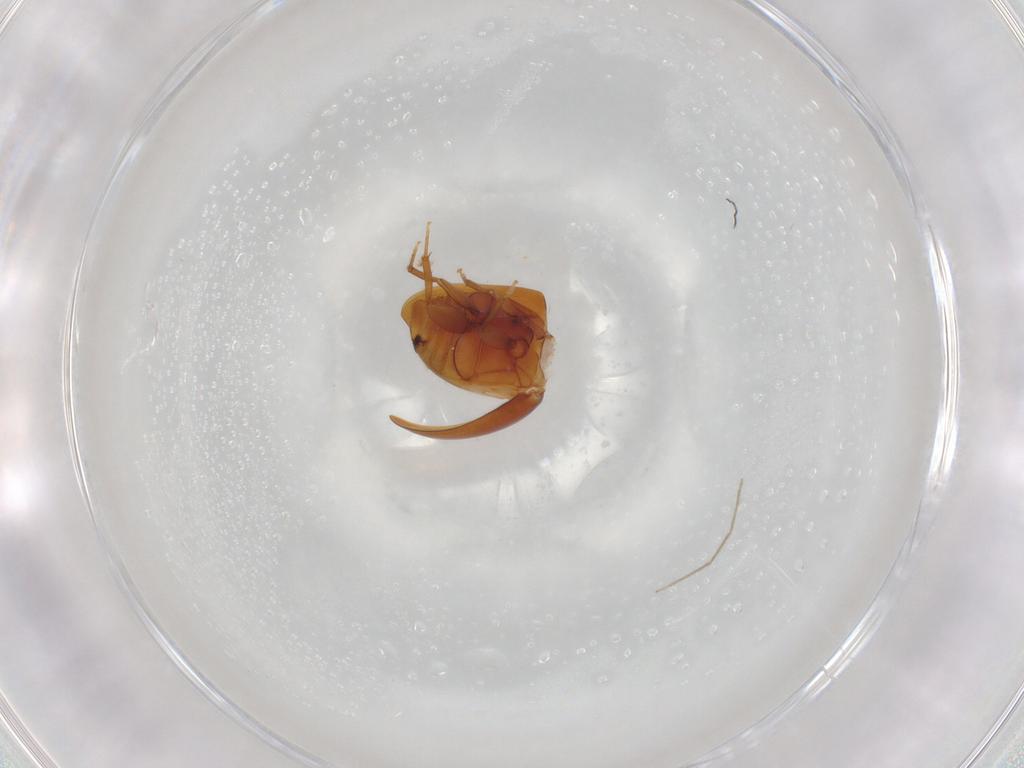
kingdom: Animalia
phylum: Arthropoda
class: Insecta
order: Coleoptera
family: Phalacridae
